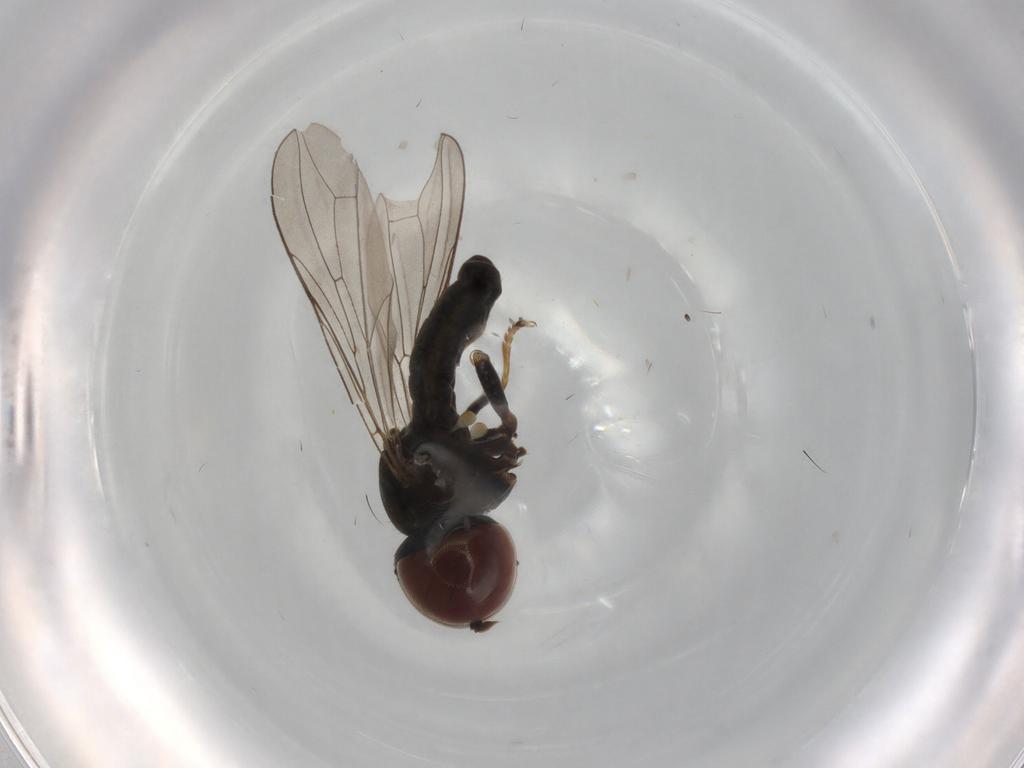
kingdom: Animalia
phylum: Arthropoda
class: Insecta
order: Diptera
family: Pipunculidae
